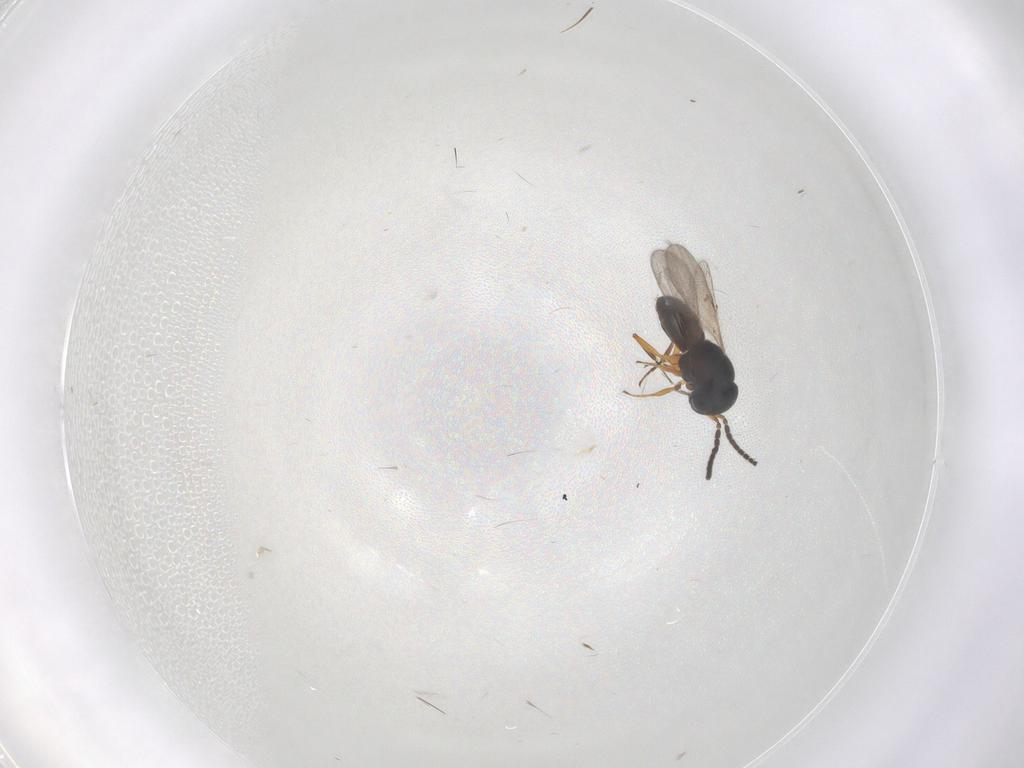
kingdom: Animalia
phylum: Arthropoda
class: Insecta
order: Hymenoptera
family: Scelionidae
